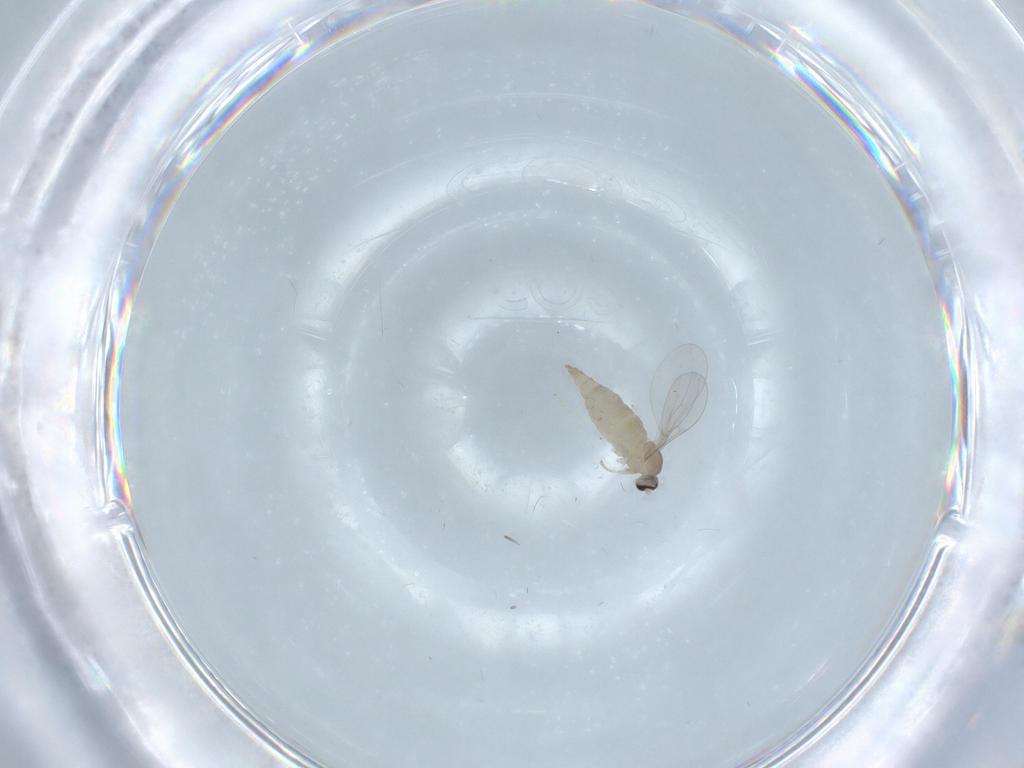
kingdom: Animalia
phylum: Arthropoda
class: Insecta
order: Diptera
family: Cecidomyiidae
